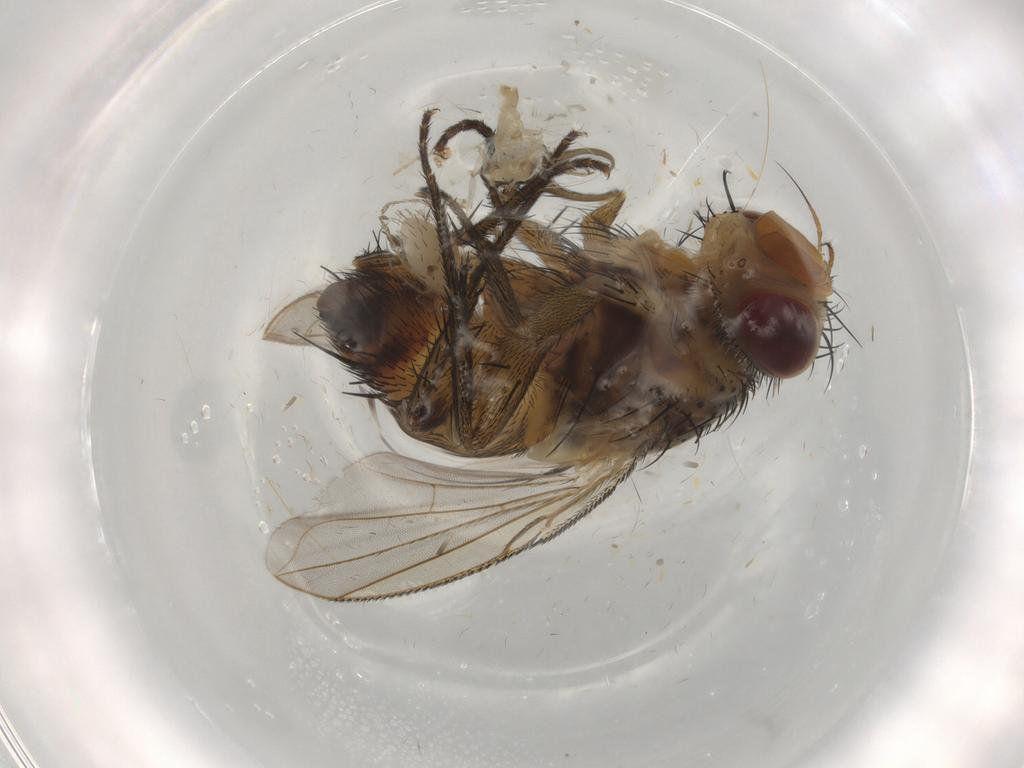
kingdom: Animalia
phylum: Arthropoda
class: Insecta
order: Diptera
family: Tachinidae
